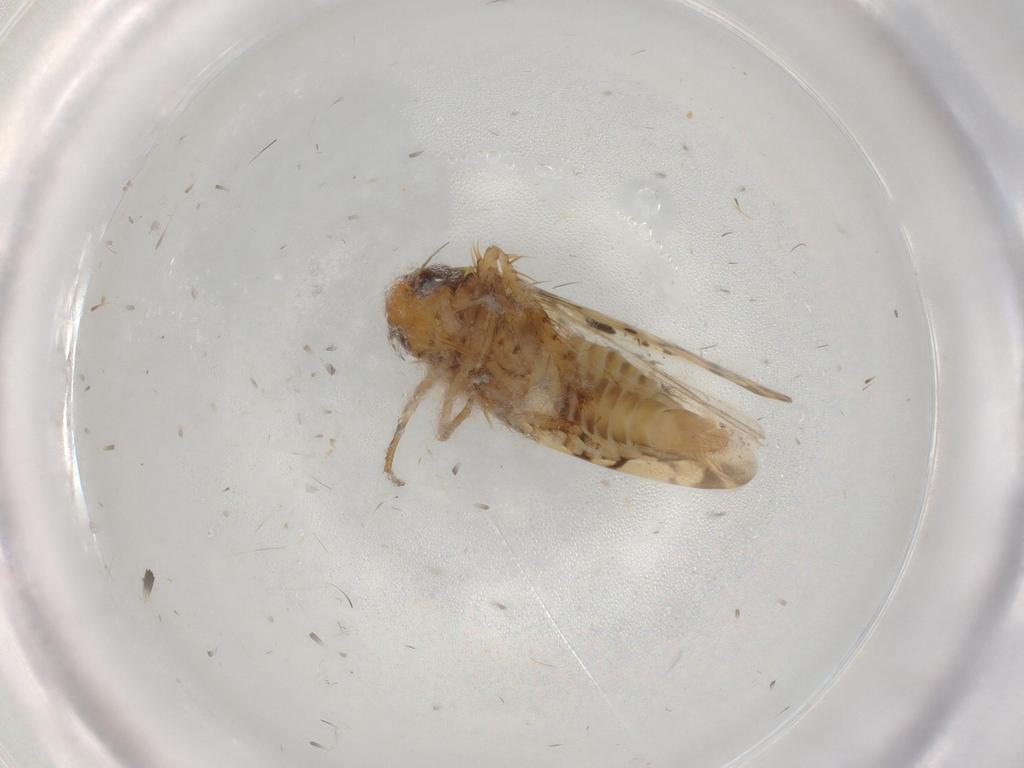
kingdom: Animalia
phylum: Arthropoda
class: Insecta
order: Hemiptera
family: Cicadellidae
